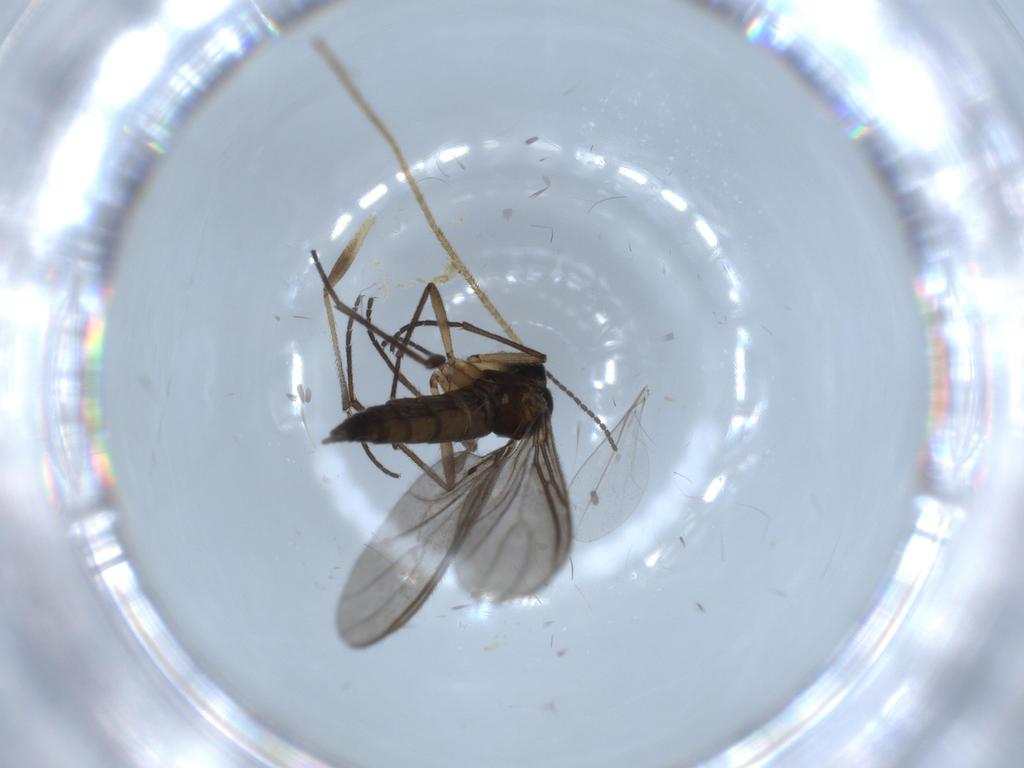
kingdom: Animalia
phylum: Arthropoda
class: Insecta
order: Diptera
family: Cecidomyiidae
